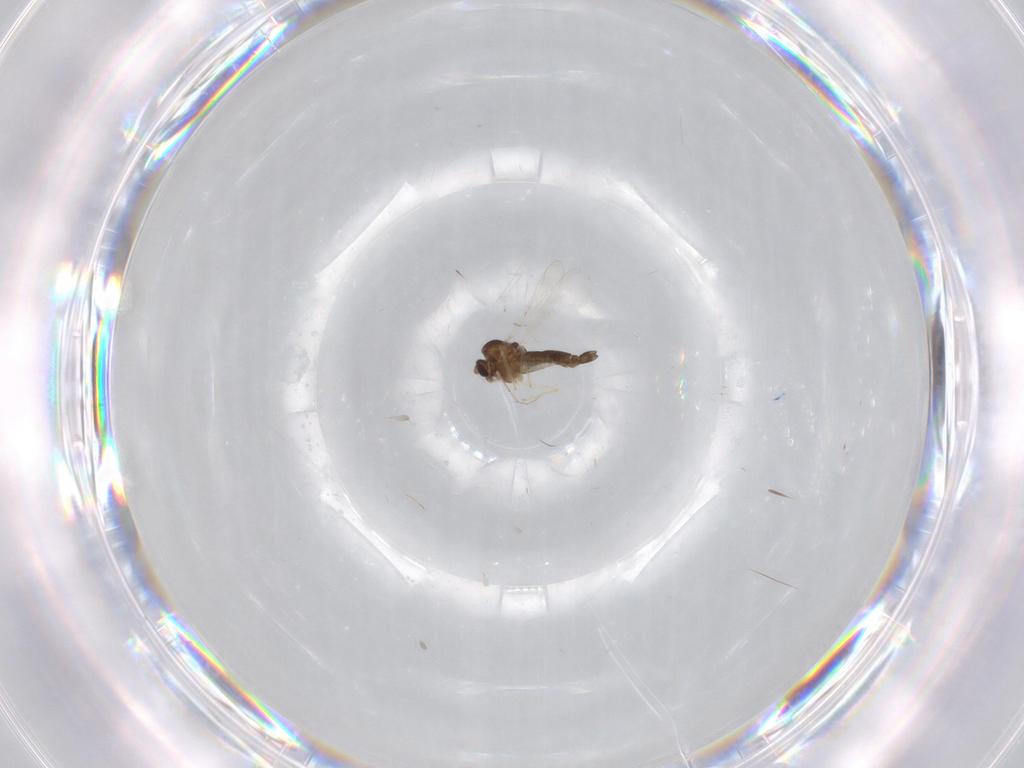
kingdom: Animalia
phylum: Arthropoda
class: Insecta
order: Diptera
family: Chironomidae
